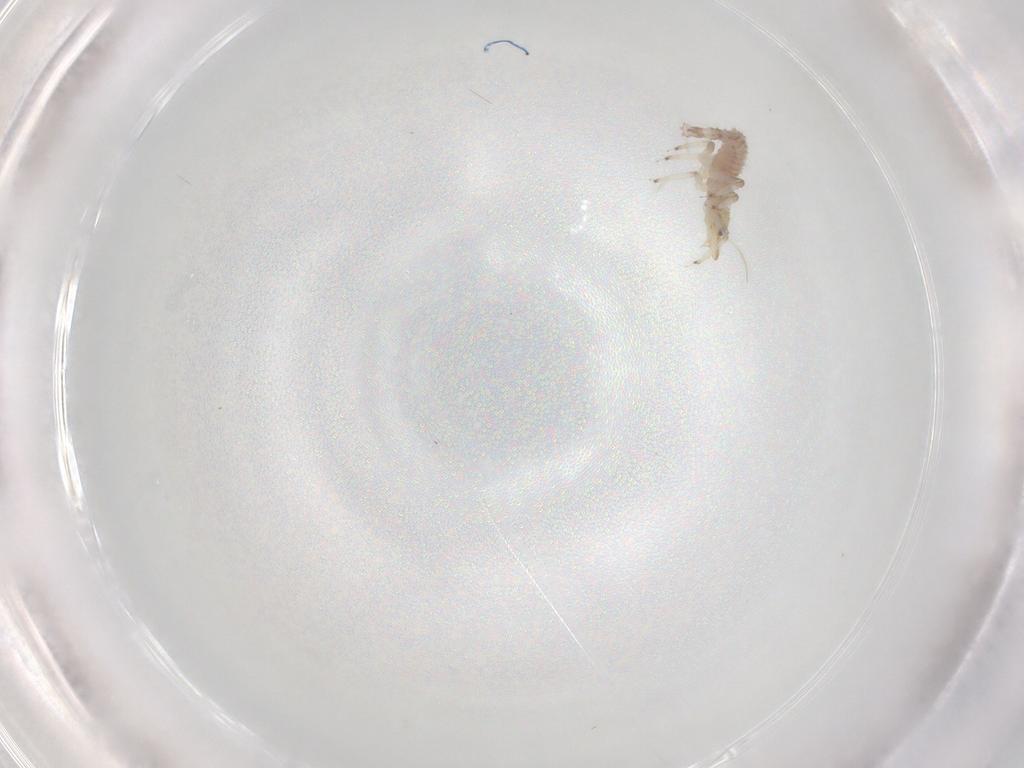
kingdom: Animalia
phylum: Arthropoda
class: Insecta
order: Neuroptera
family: Chrysopidae
